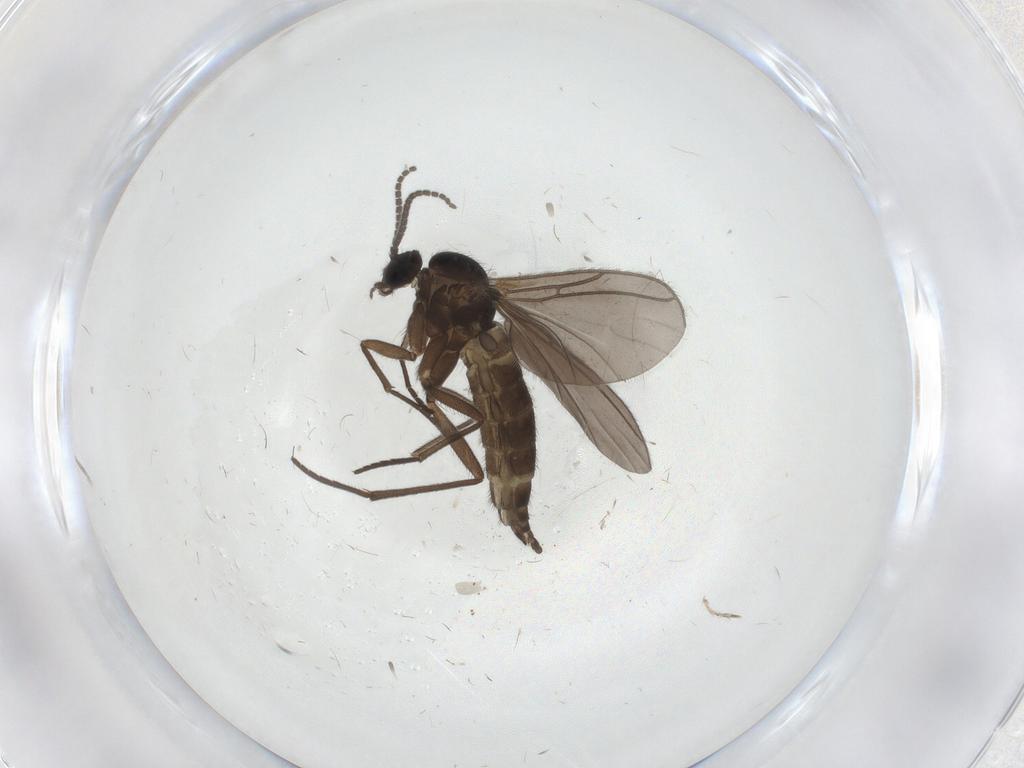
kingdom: Animalia
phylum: Arthropoda
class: Insecta
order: Diptera
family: Sciaridae
